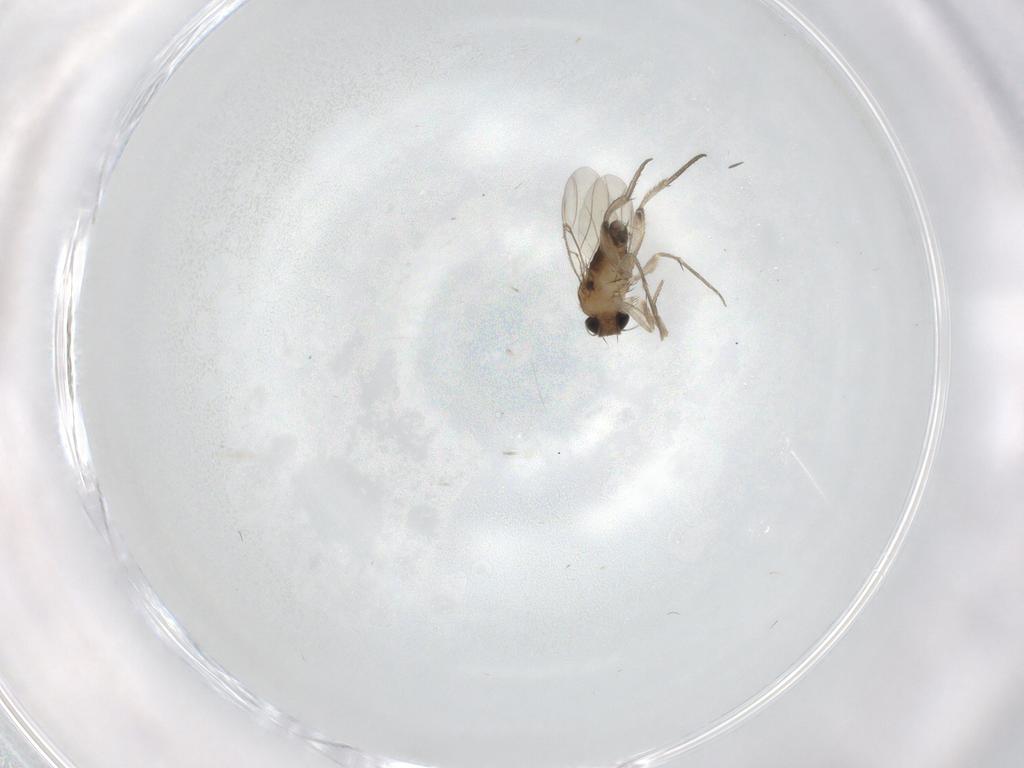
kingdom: Animalia
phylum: Arthropoda
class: Insecta
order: Diptera
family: Phoridae
